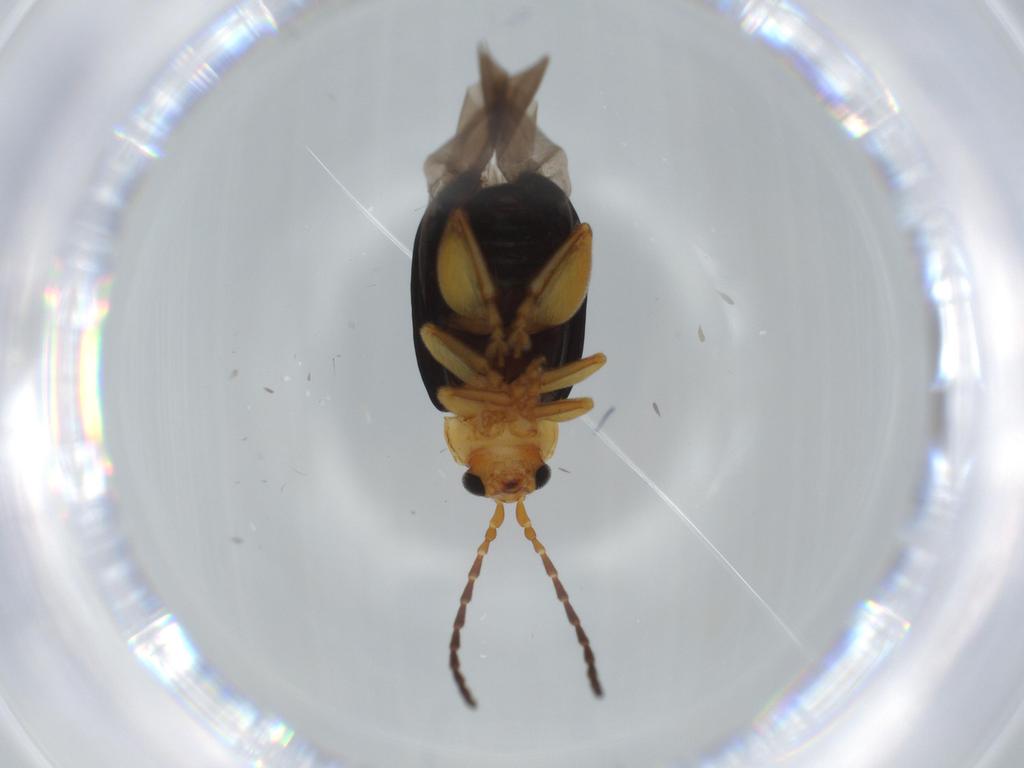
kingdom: Animalia
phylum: Arthropoda
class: Insecta
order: Coleoptera
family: Chrysomelidae
